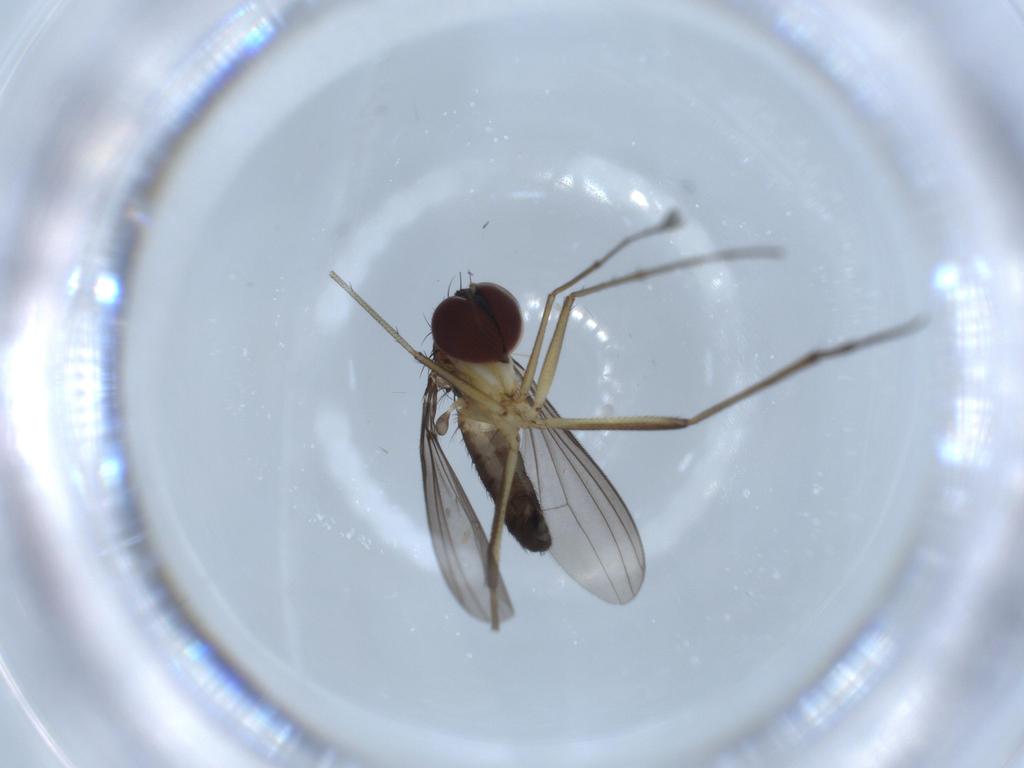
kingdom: Animalia
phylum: Arthropoda
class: Insecta
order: Diptera
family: Dolichopodidae
